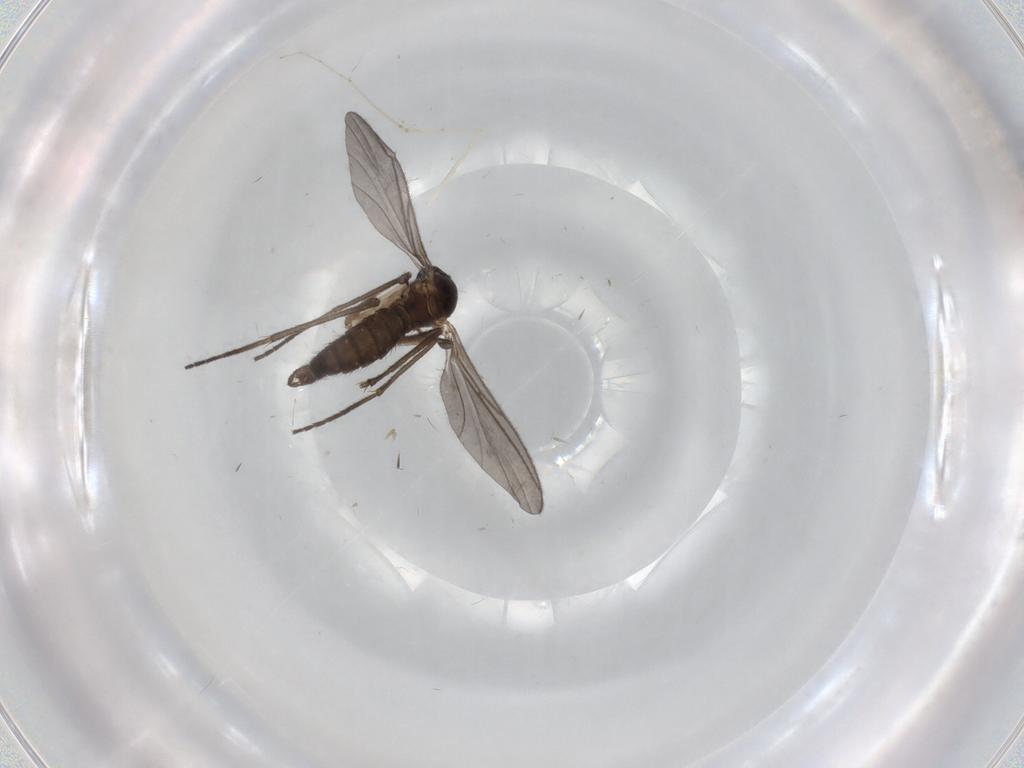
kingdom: Animalia
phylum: Arthropoda
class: Insecta
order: Diptera
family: Sciaridae
